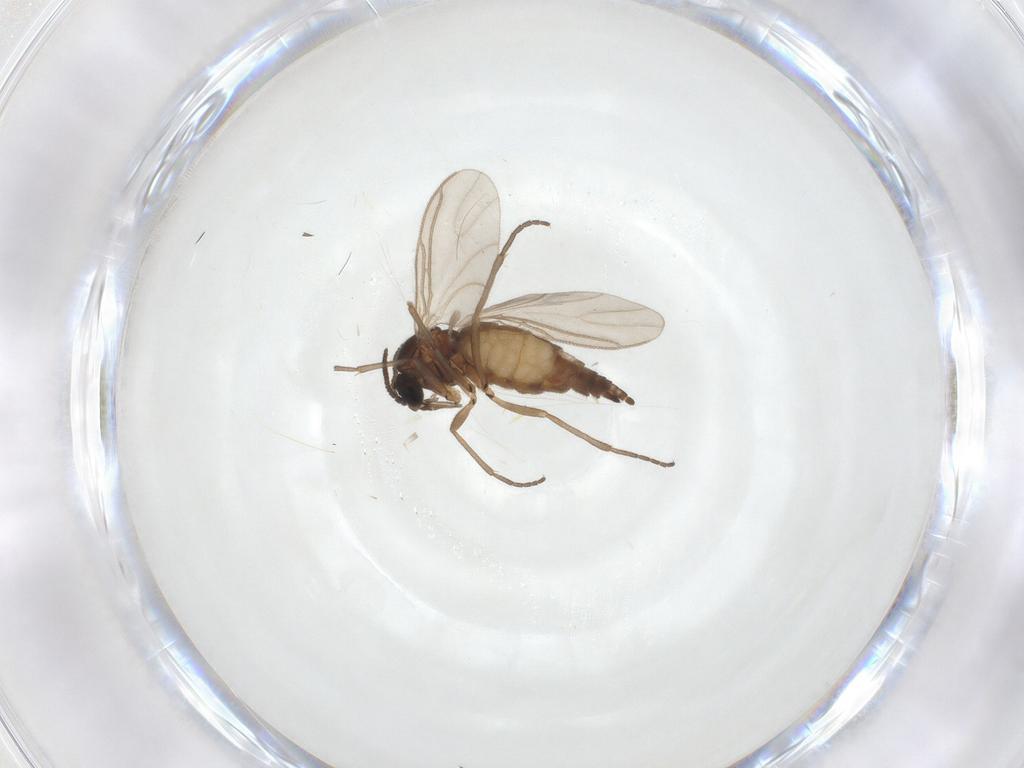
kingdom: Animalia
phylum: Arthropoda
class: Insecta
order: Diptera
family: Sciaridae
